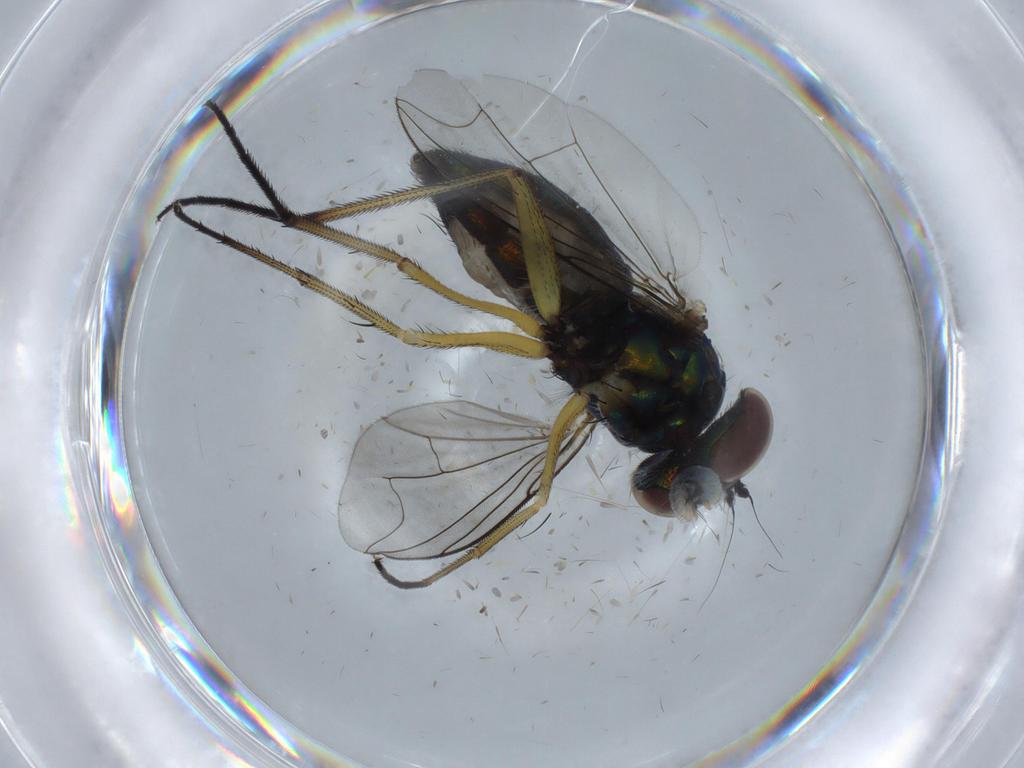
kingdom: Animalia
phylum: Arthropoda
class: Insecta
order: Diptera
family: Dolichopodidae
